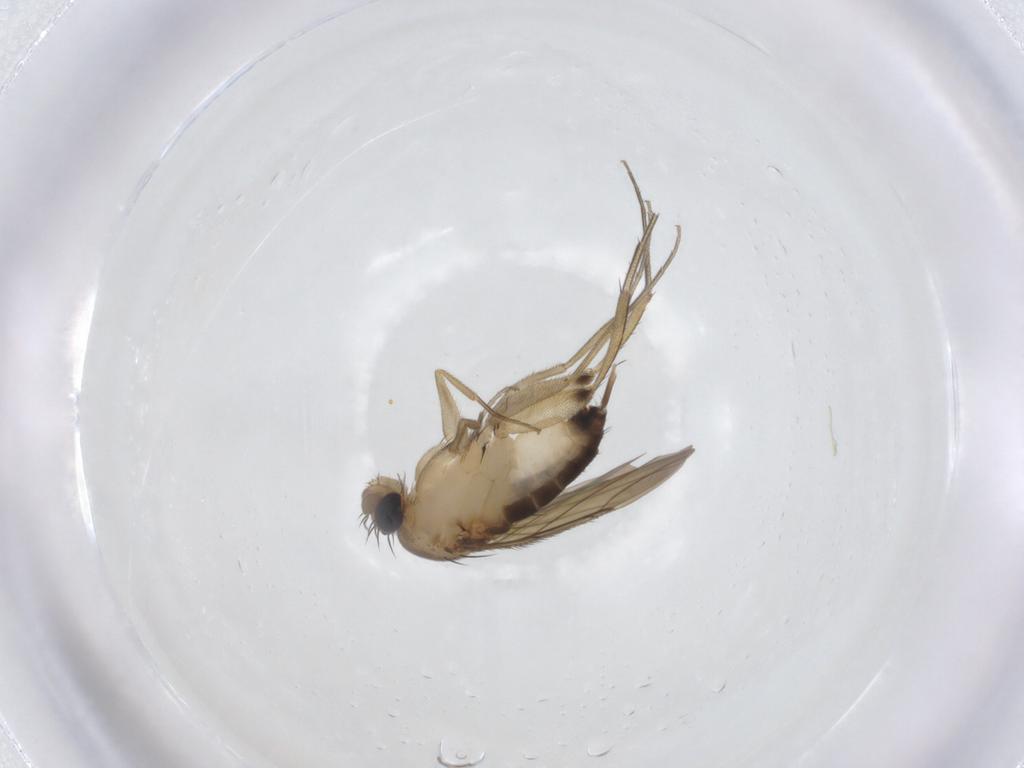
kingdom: Animalia
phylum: Arthropoda
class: Insecta
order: Diptera
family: Phoridae
